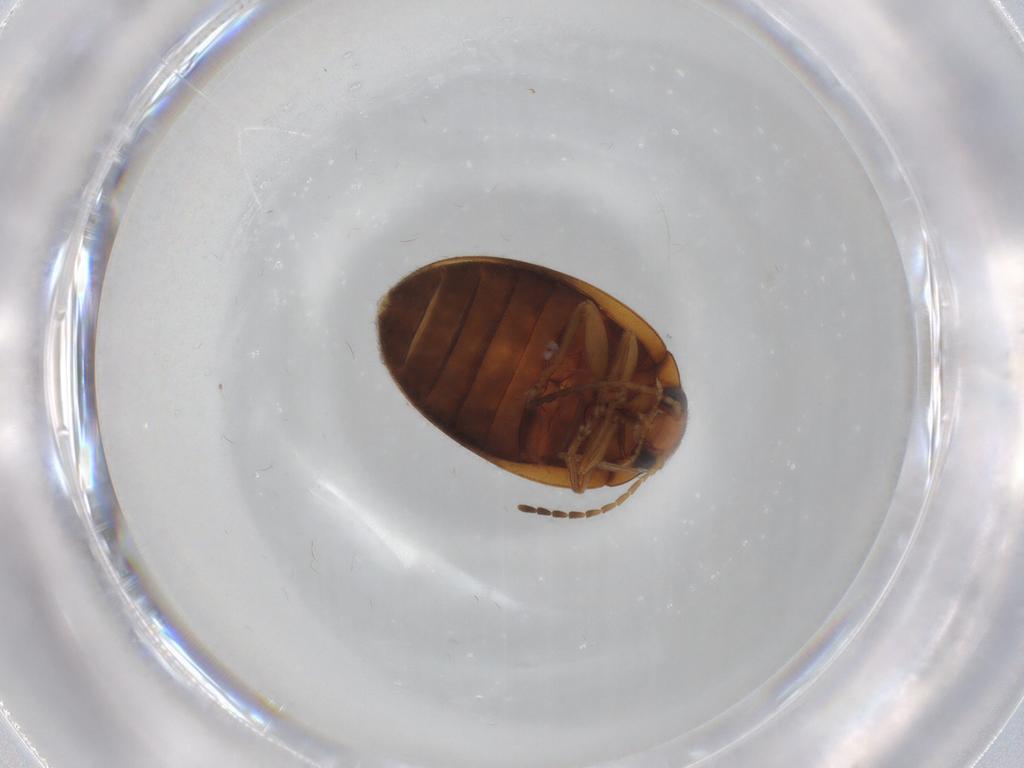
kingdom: Animalia
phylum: Arthropoda
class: Insecta
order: Coleoptera
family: Scirtidae
